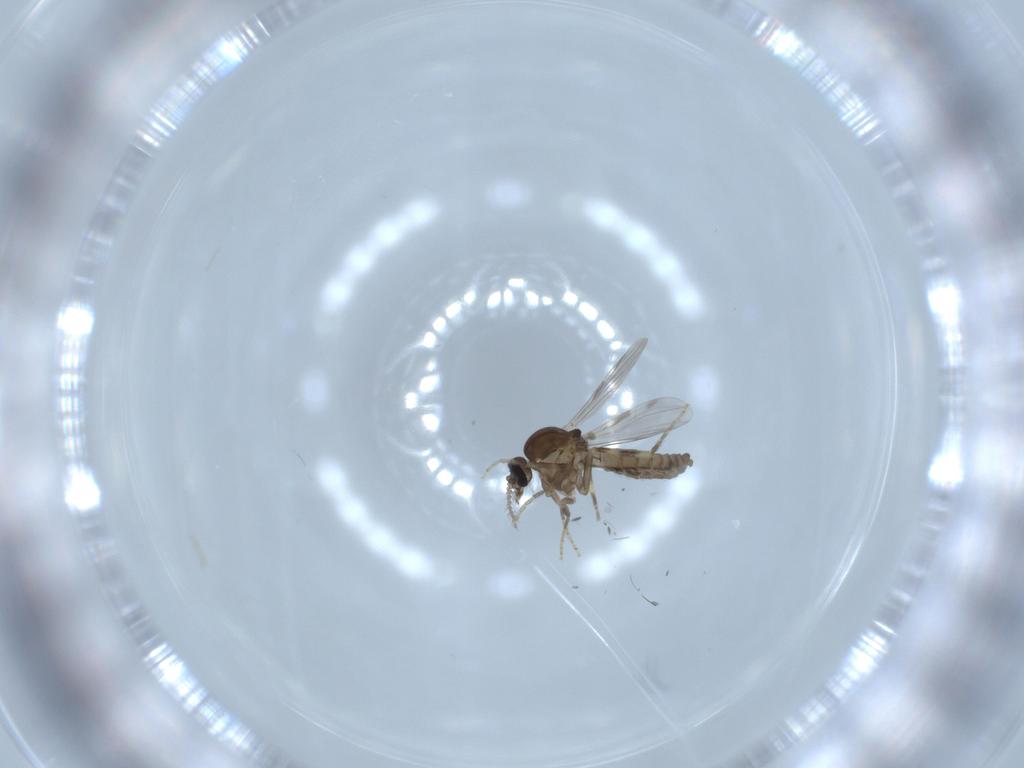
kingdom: Animalia
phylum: Arthropoda
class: Insecta
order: Diptera
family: Ceratopogonidae
